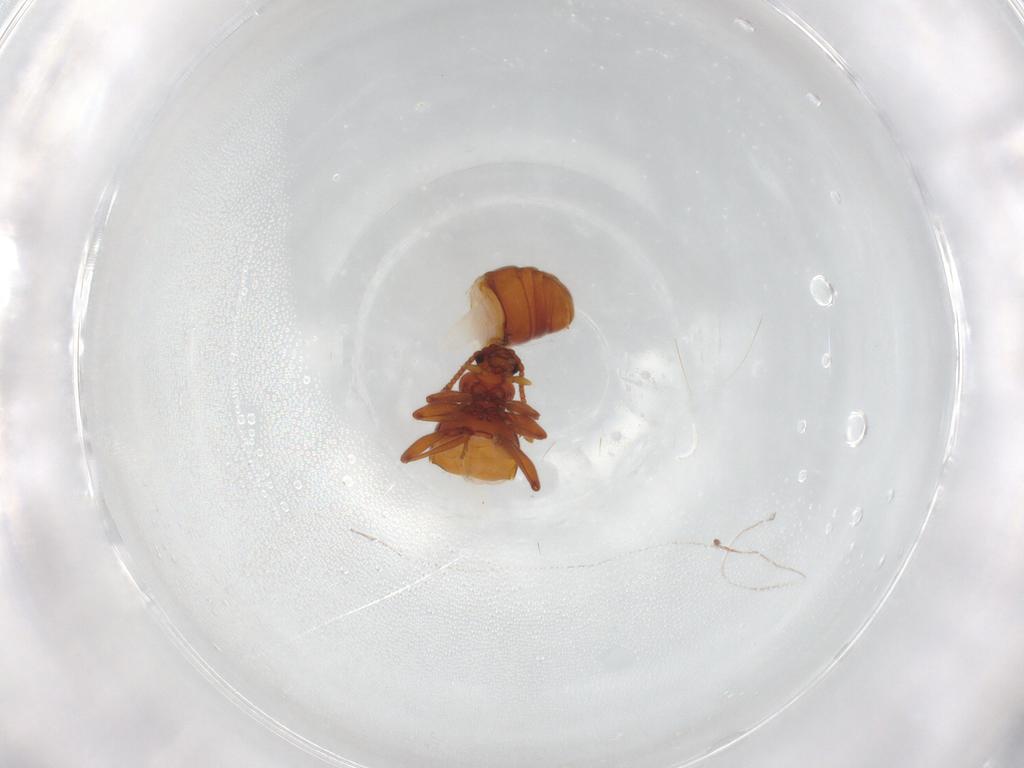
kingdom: Animalia
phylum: Arthropoda
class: Insecta
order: Coleoptera
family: Staphylinidae
